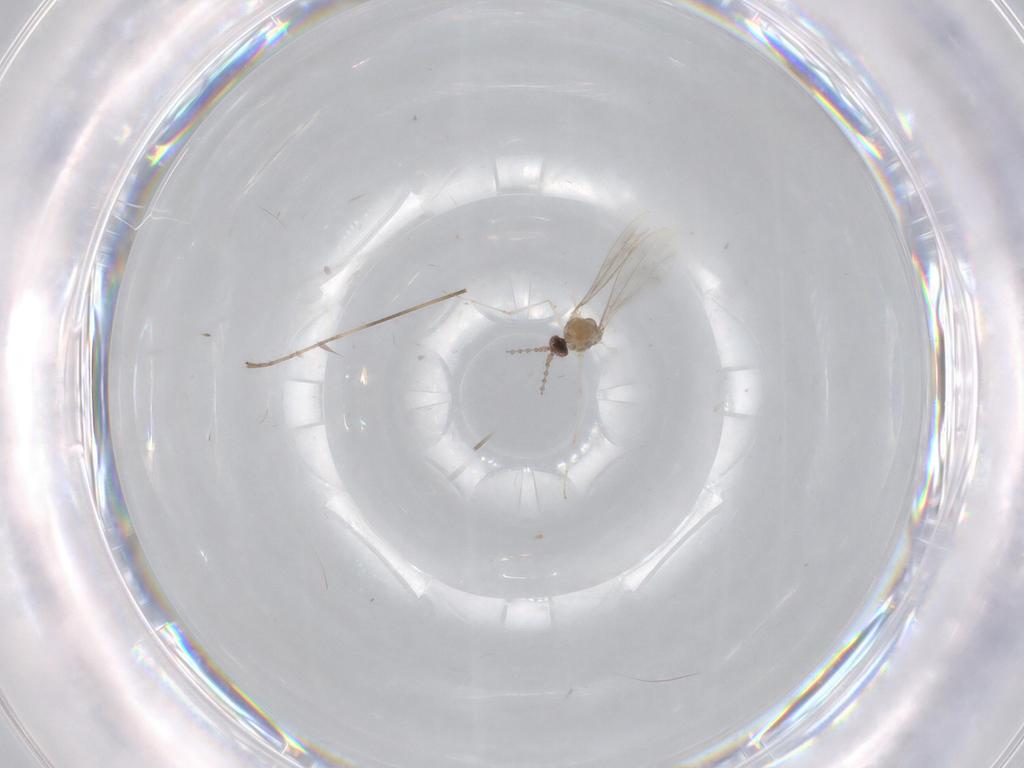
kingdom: Animalia
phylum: Arthropoda
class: Insecta
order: Diptera
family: Cecidomyiidae
